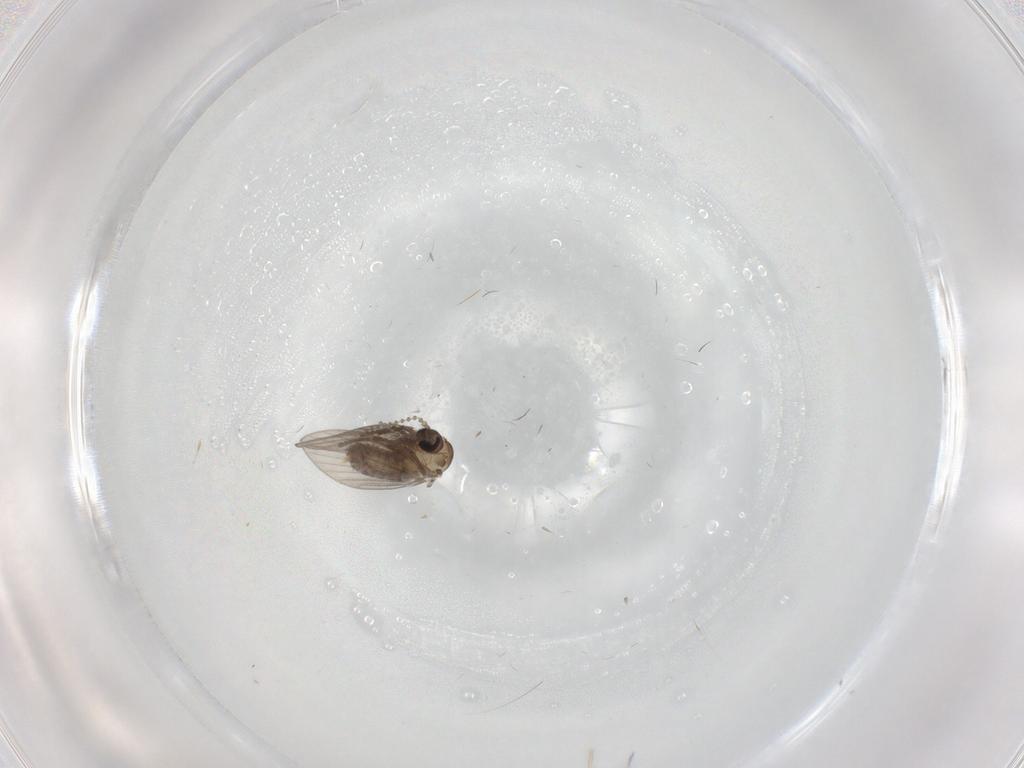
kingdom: Animalia
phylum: Arthropoda
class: Insecta
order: Diptera
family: Psychodidae
